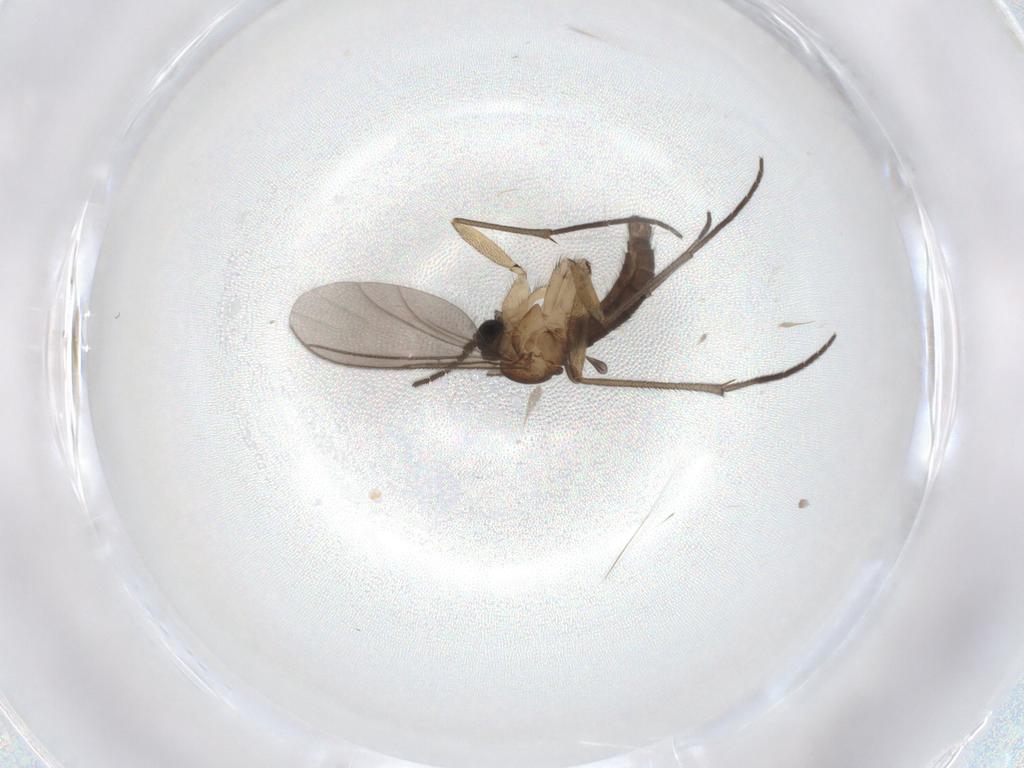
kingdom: Animalia
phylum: Arthropoda
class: Insecta
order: Diptera
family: Sciaridae
